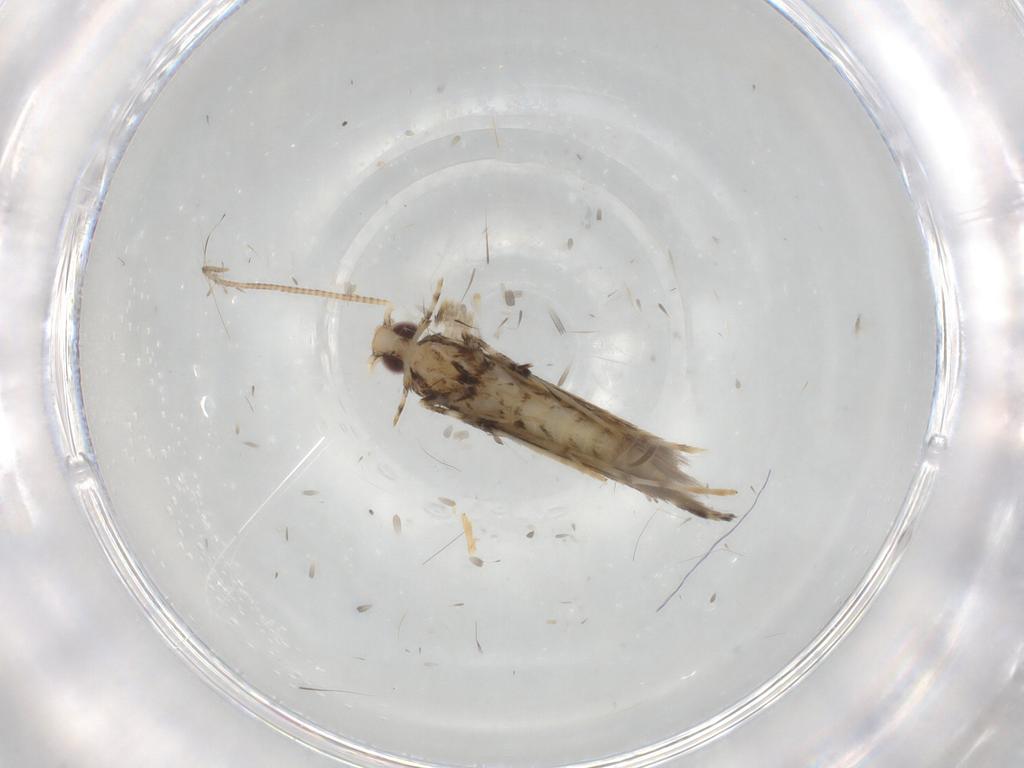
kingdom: Animalia
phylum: Arthropoda
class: Insecta
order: Lepidoptera
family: Gracillariidae
